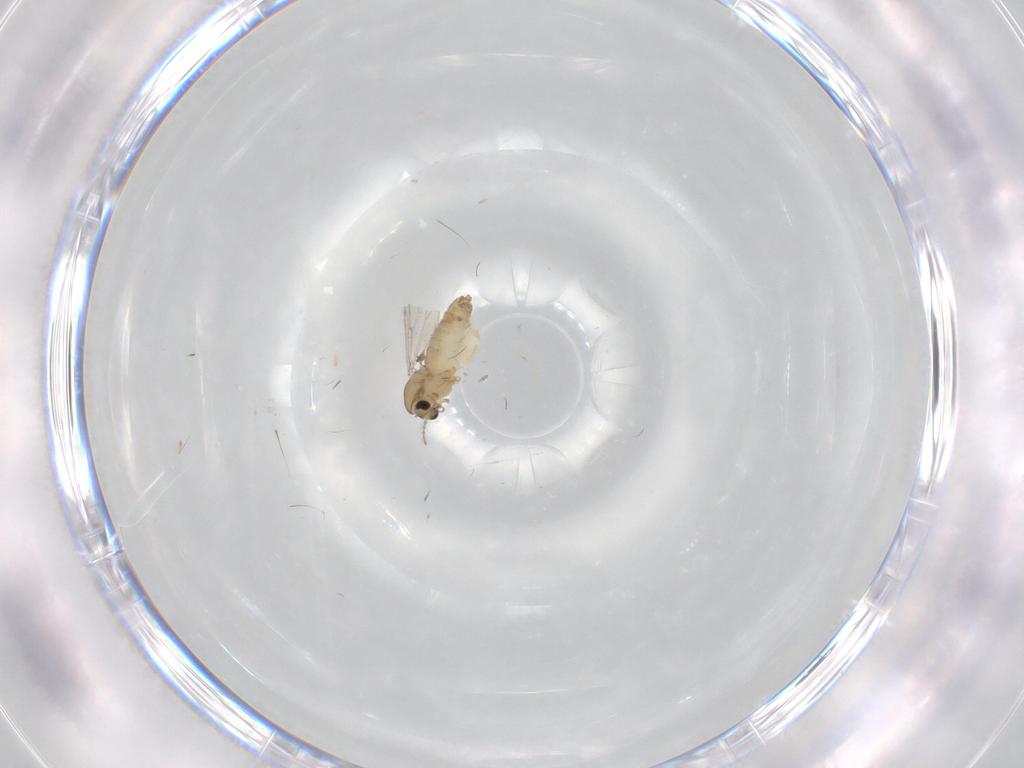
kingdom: Animalia
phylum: Arthropoda
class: Insecta
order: Diptera
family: Chironomidae
